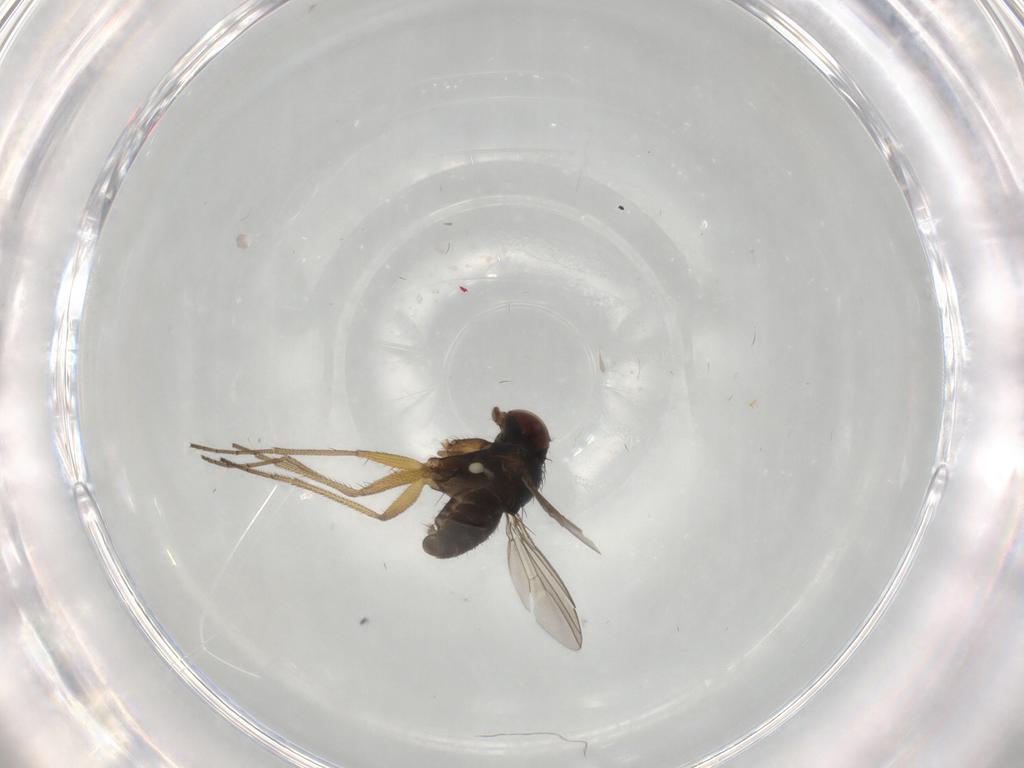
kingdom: Animalia
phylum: Arthropoda
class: Insecta
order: Diptera
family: Dolichopodidae
